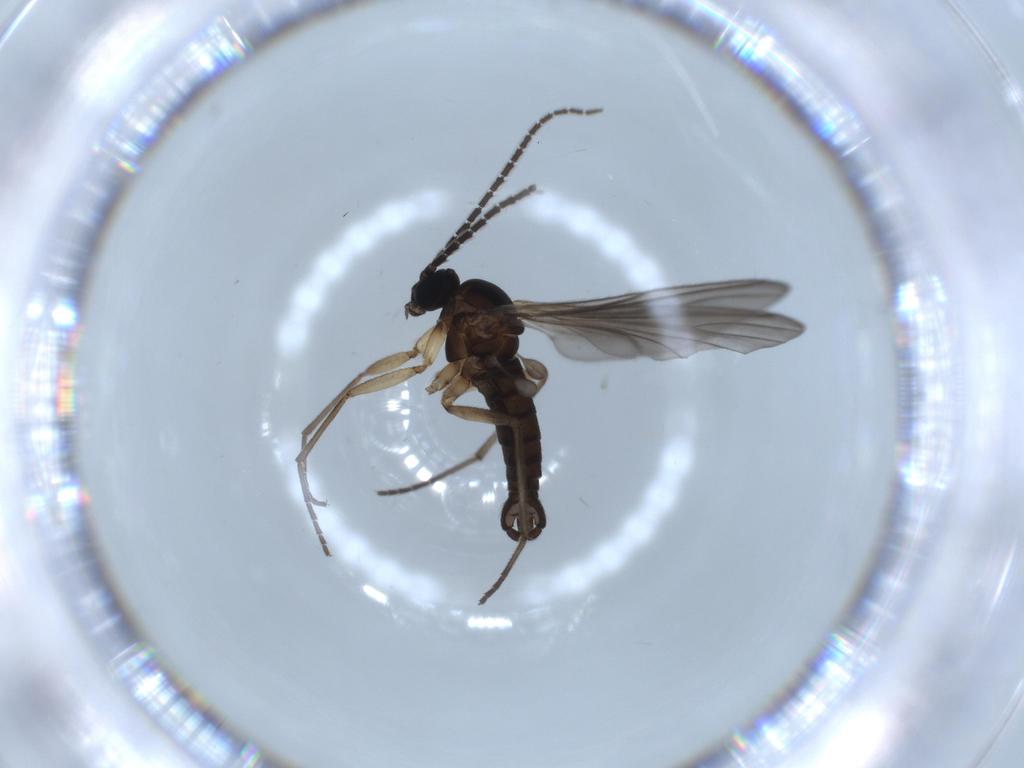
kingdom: Animalia
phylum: Arthropoda
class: Insecta
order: Diptera
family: Sciaridae
